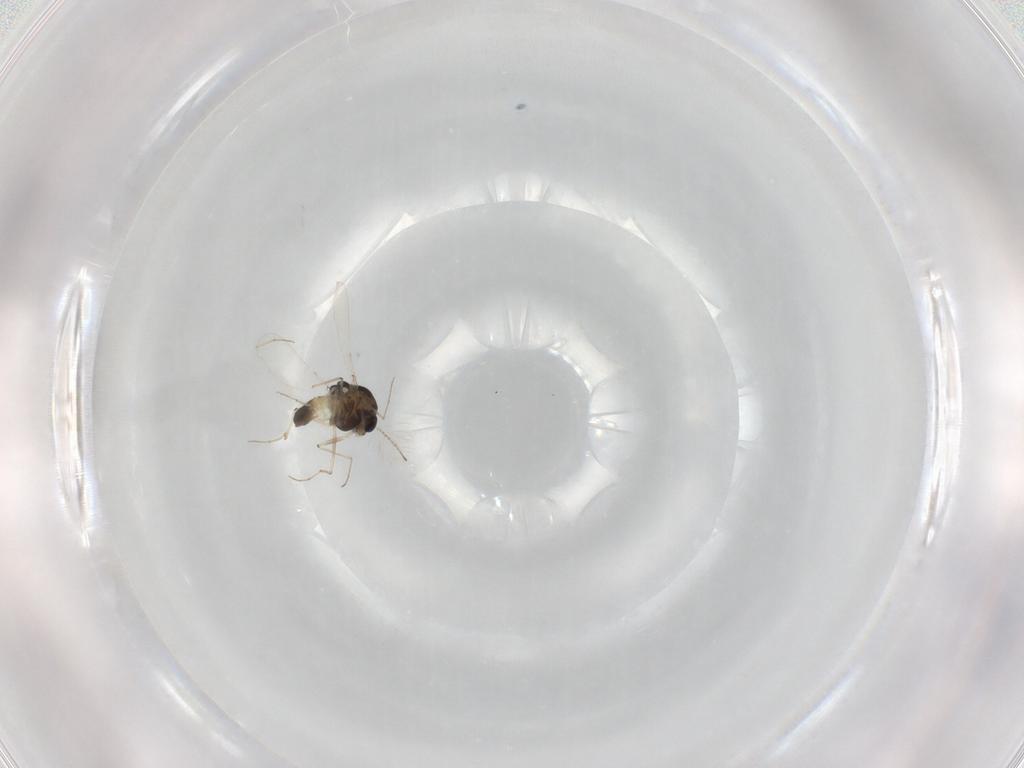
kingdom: Animalia
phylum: Arthropoda
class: Insecta
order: Diptera
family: Chironomidae
